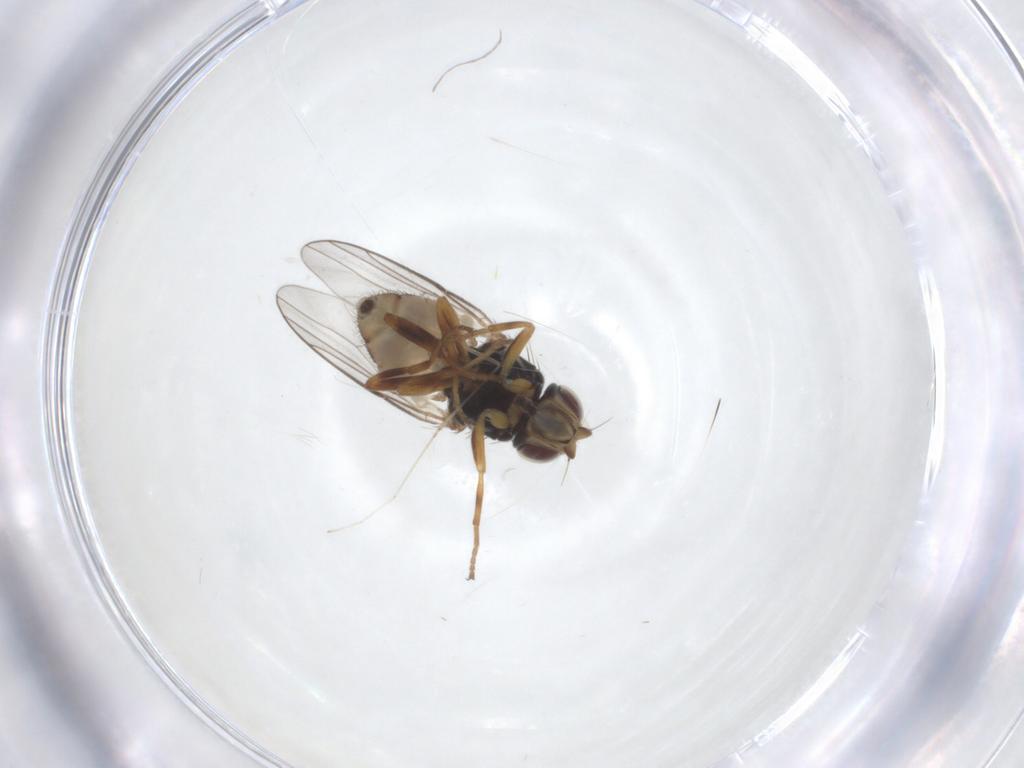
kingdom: Animalia
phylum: Arthropoda
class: Insecta
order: Diptera
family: Chloropidae
